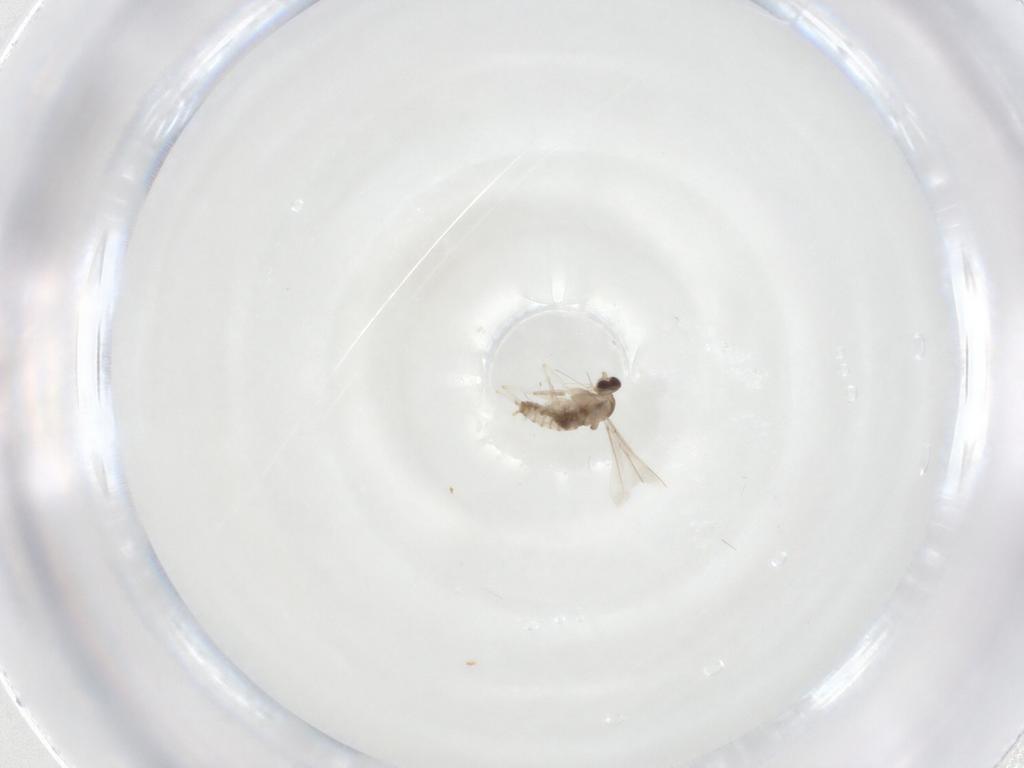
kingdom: Animalia
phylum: Arthropoda
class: Insecta
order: Diptera
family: Cecidomyiidae
